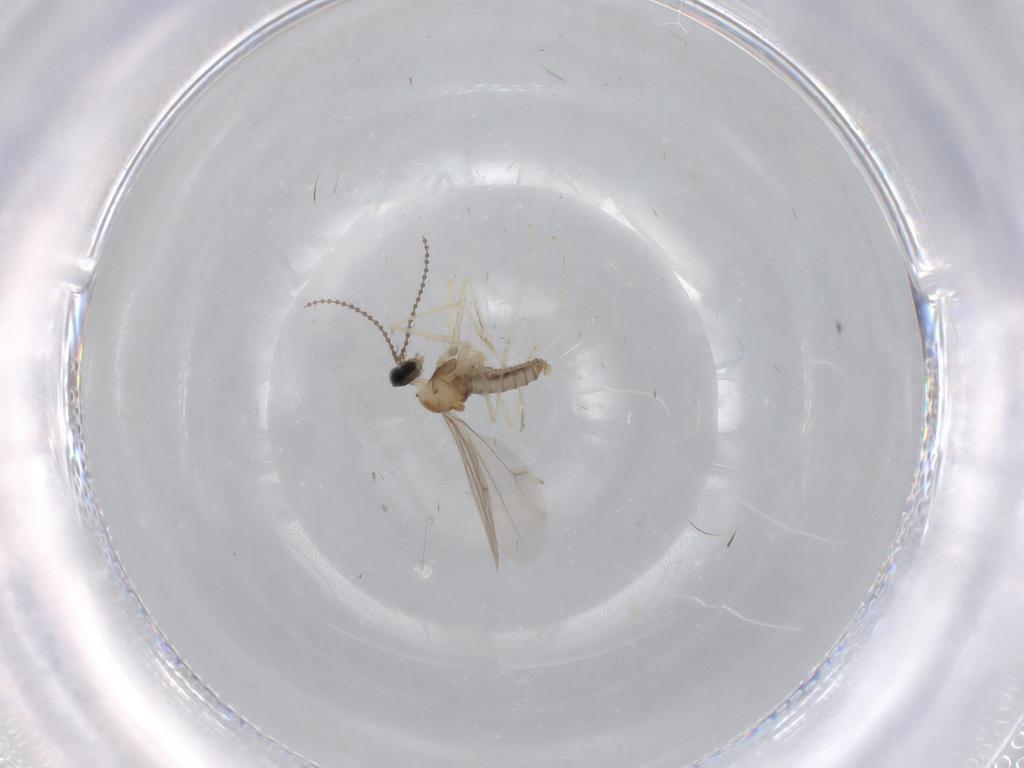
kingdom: Animalia
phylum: Arthropoda
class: Insecta
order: Diptera
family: Cecidomyiidae
